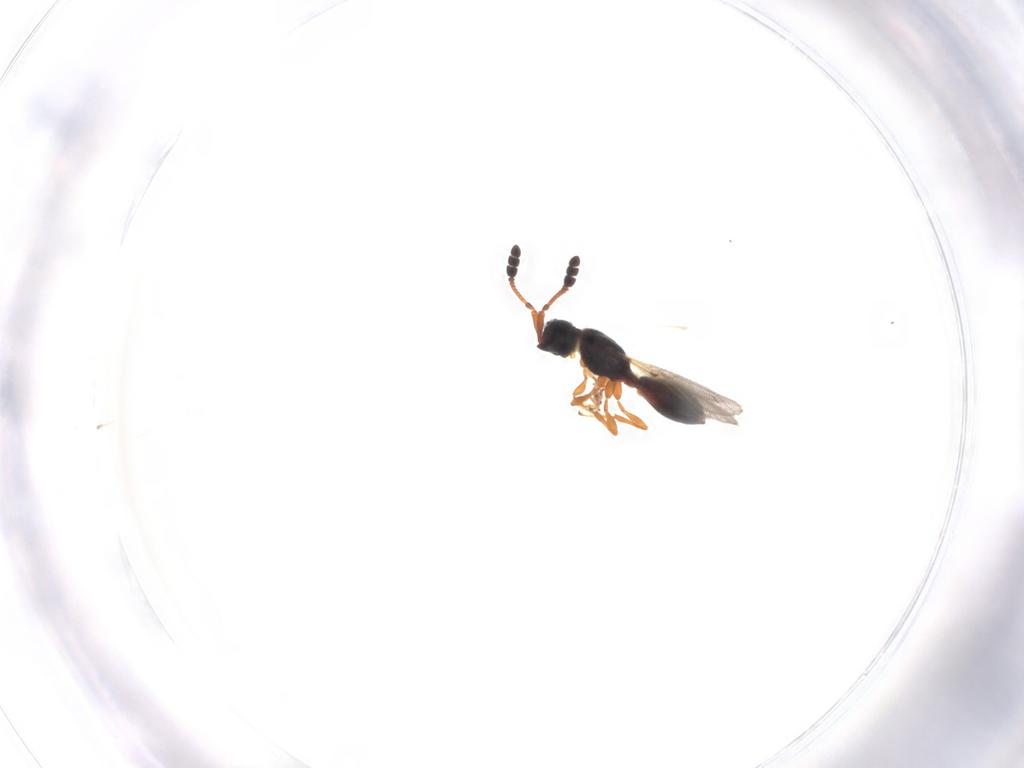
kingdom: Animalia
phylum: Arthropoda
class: Insecta
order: Hymenoptera
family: Diapriidae
